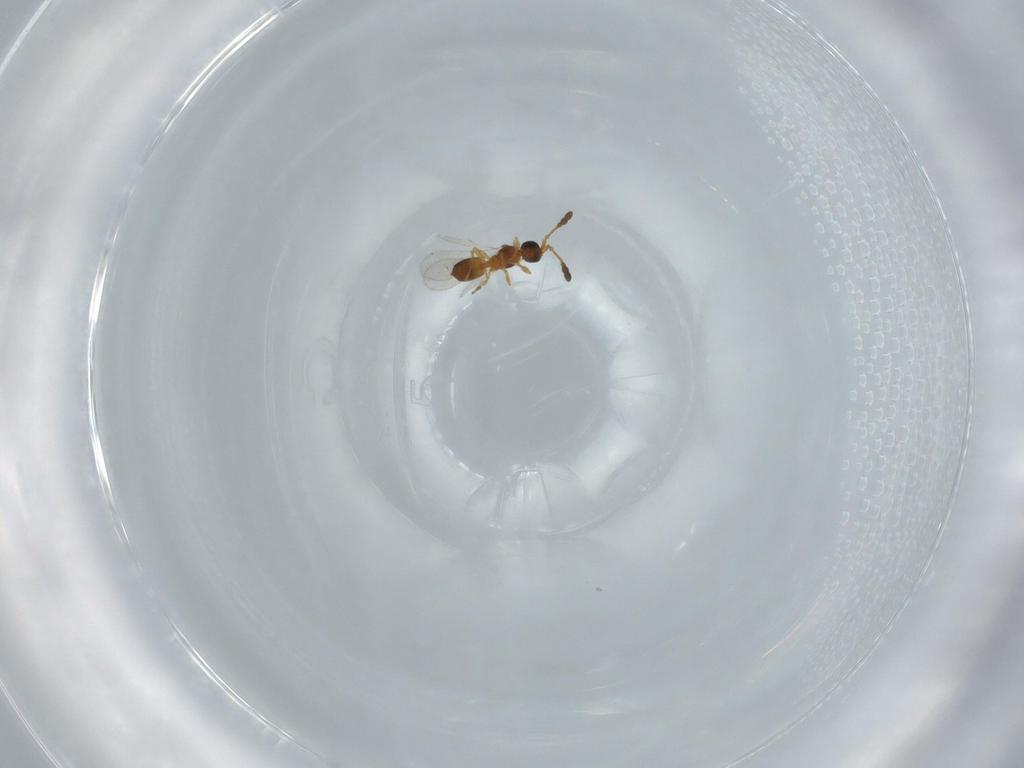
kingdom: Animalia
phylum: Arthropoda
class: Insecta
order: Hymenoptera
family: Diapriidae
